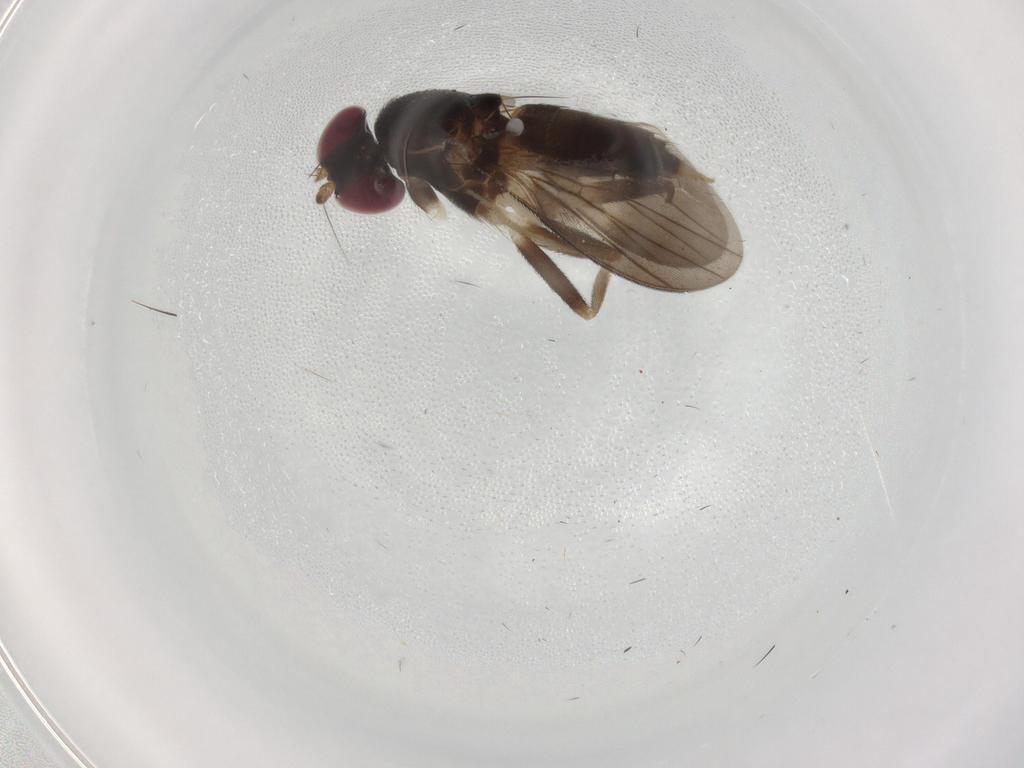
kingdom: Animalia
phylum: Arthropoda
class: Insecta
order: Diptera
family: Clusiidae
